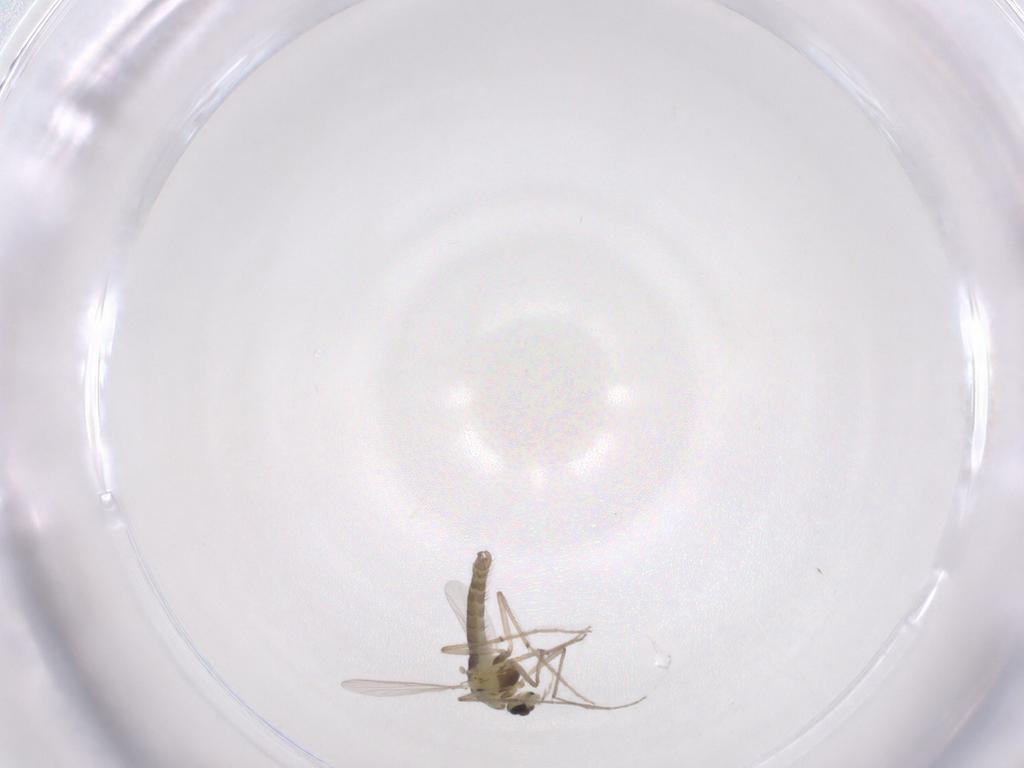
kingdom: Animalia
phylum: Arthropoda
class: Insecta
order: Diptera
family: Chironomidae
